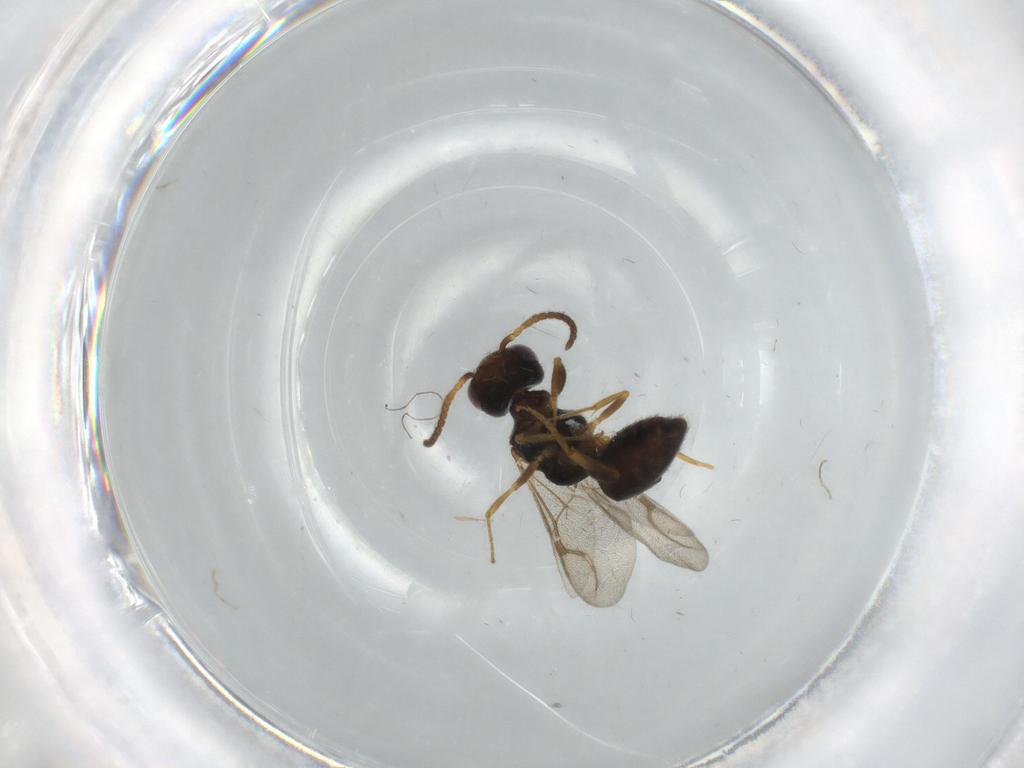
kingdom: Animalia
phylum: Arthropoda
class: Insecta
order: Hymenoptera
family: Bethylidae
